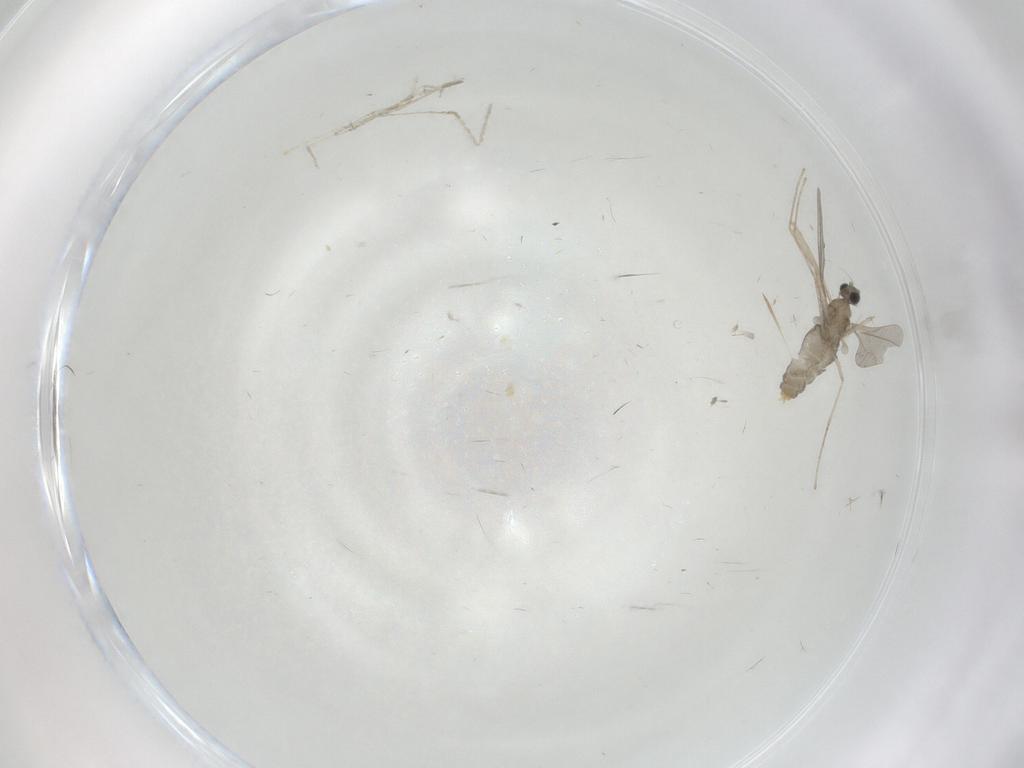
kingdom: Animalia
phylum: Arthropoda
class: Insecta
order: Diptera
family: Cecidomyiidae
